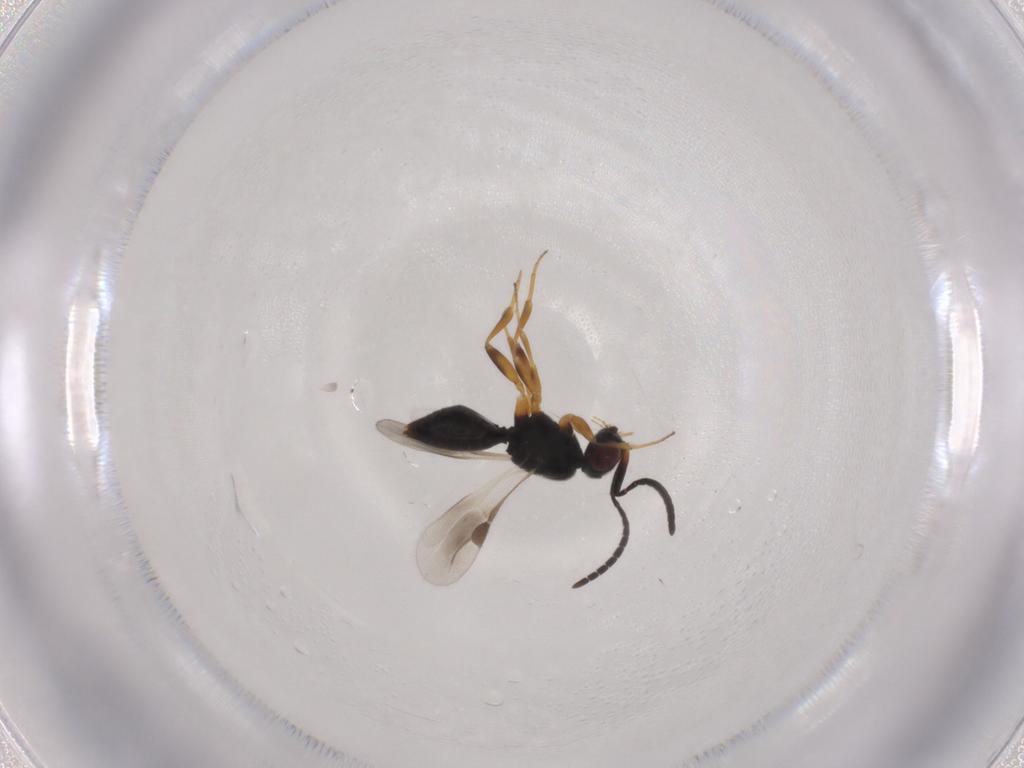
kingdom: Animalia
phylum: Arthropoda
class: Insecta
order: Hymenoptera
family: Megaspilidae
